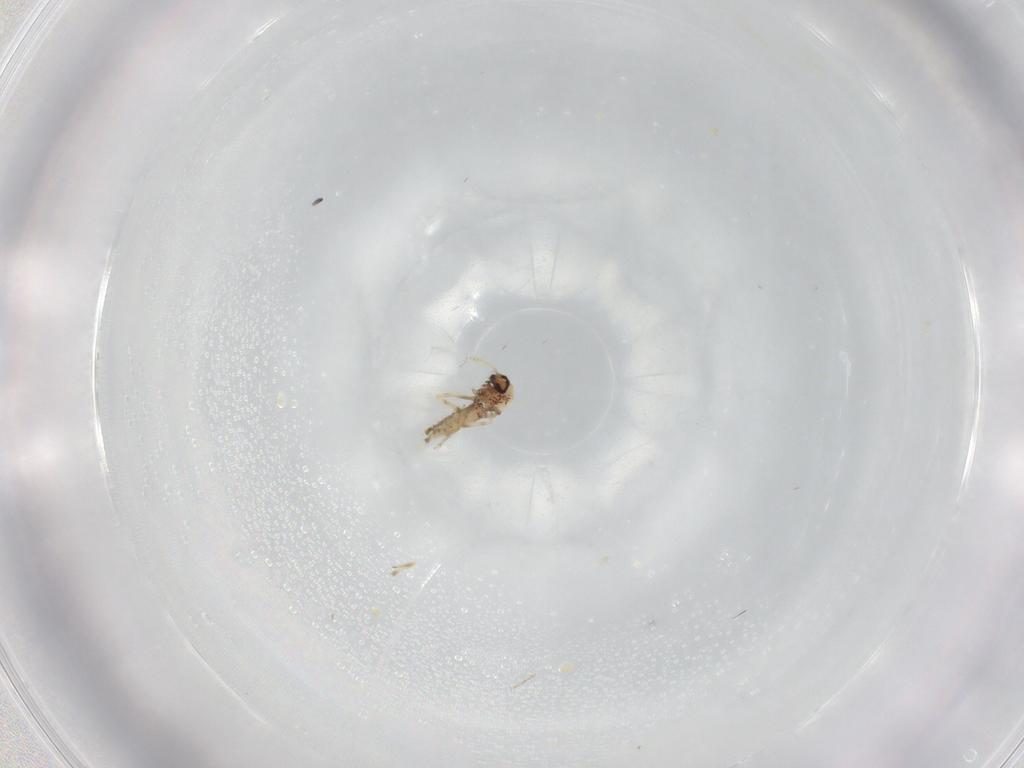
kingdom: Animalia
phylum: Arthropoda
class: Insecta
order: Diptera
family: Ceratopogonidae
